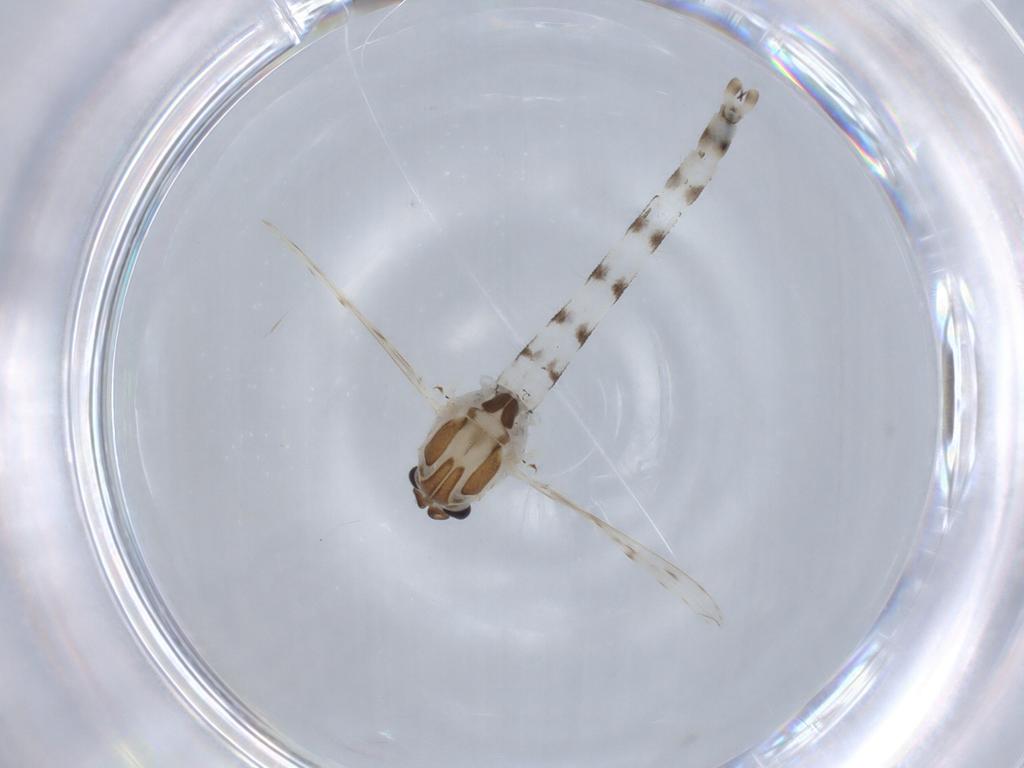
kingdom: Animalia
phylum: Arthropoda
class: Insecta
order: Diptera
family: Chaoboridae
